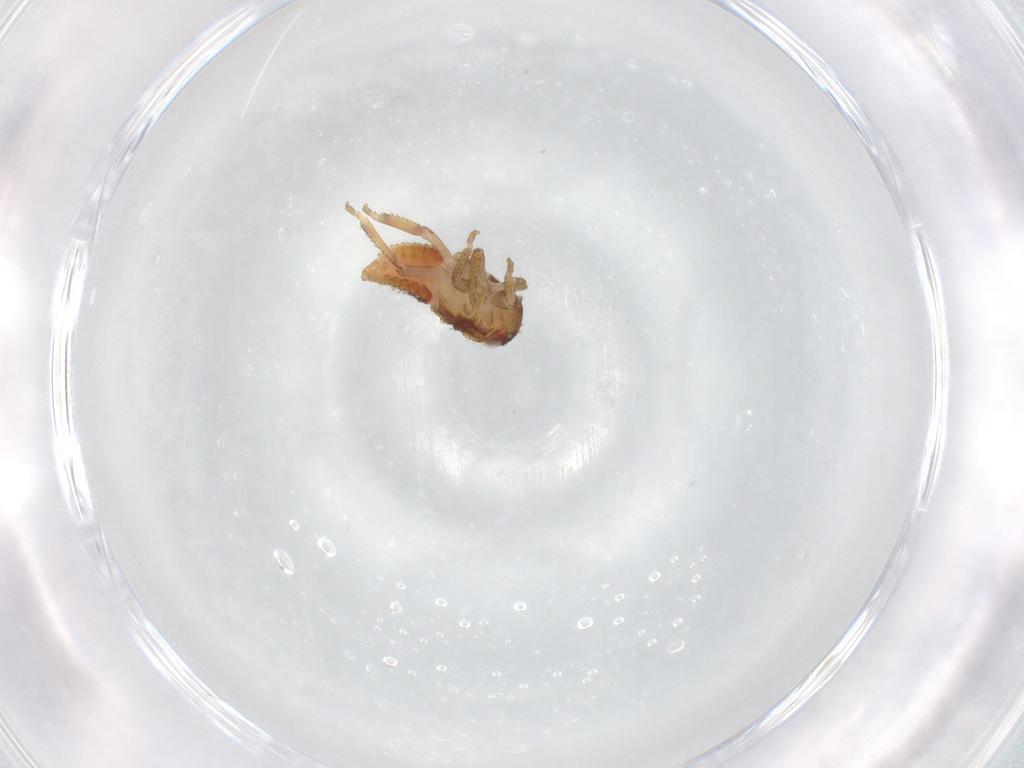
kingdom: Animalia
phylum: Arthropoda
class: Insecta
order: Hemiptera
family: Cicadellidae
